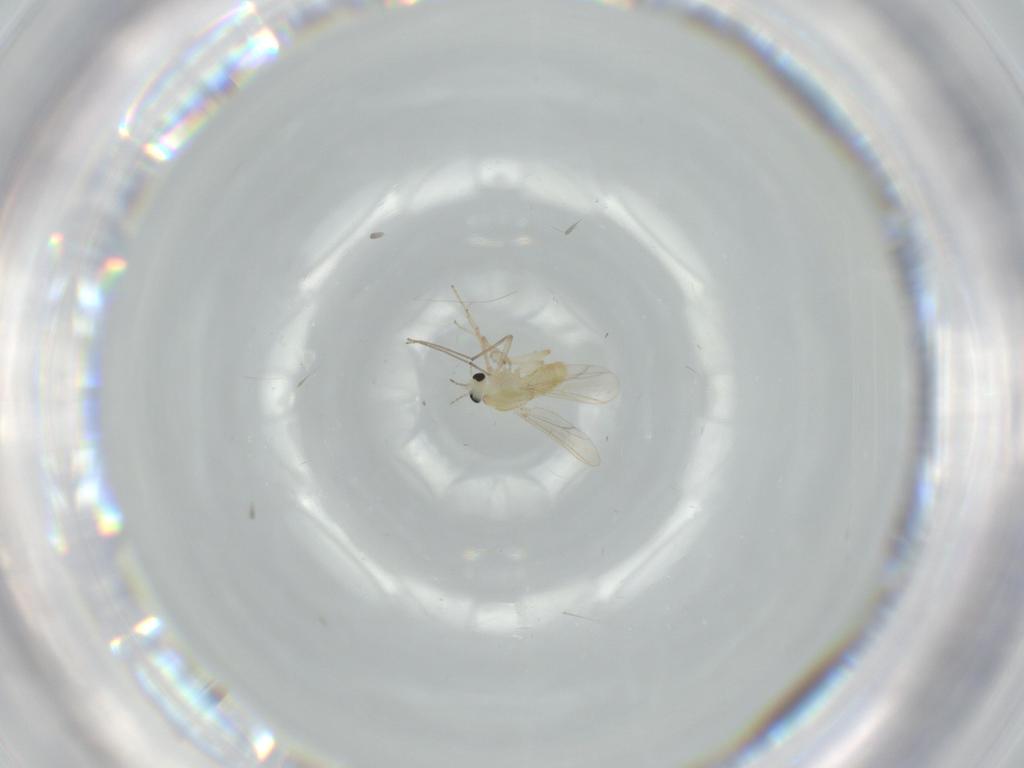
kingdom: Animalia
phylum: Arthropoda
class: Insecta
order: Diptera
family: Chironomidae
